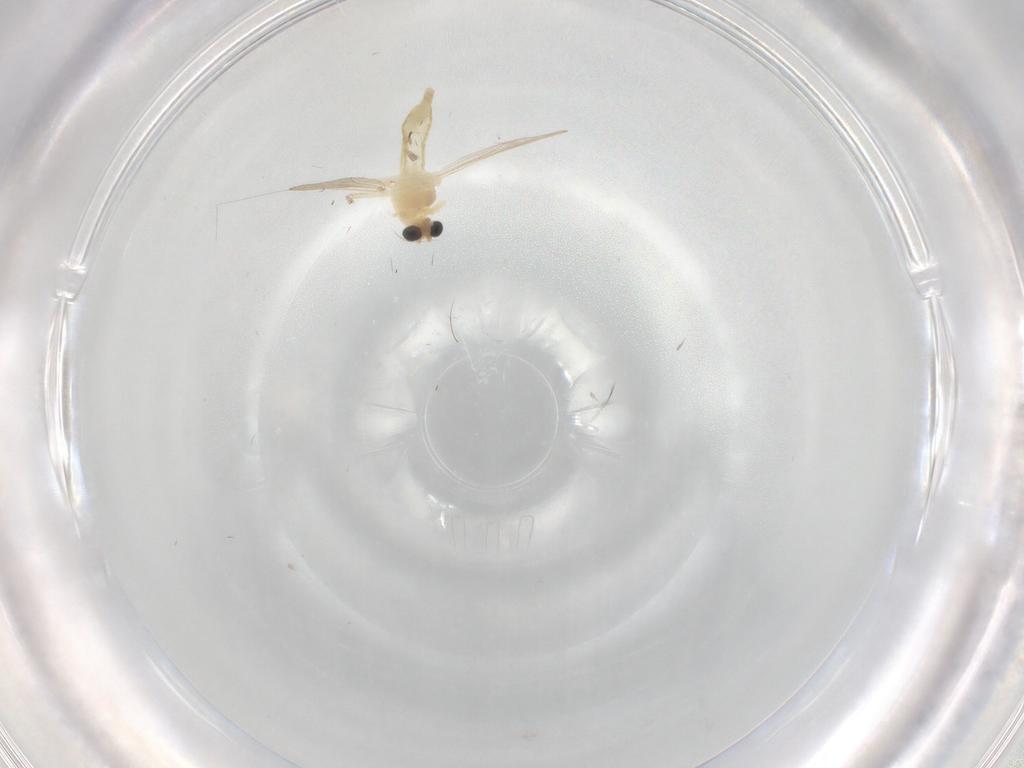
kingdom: Animalia
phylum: Arthropoda
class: Insecta
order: Diptera
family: Chironomidae
